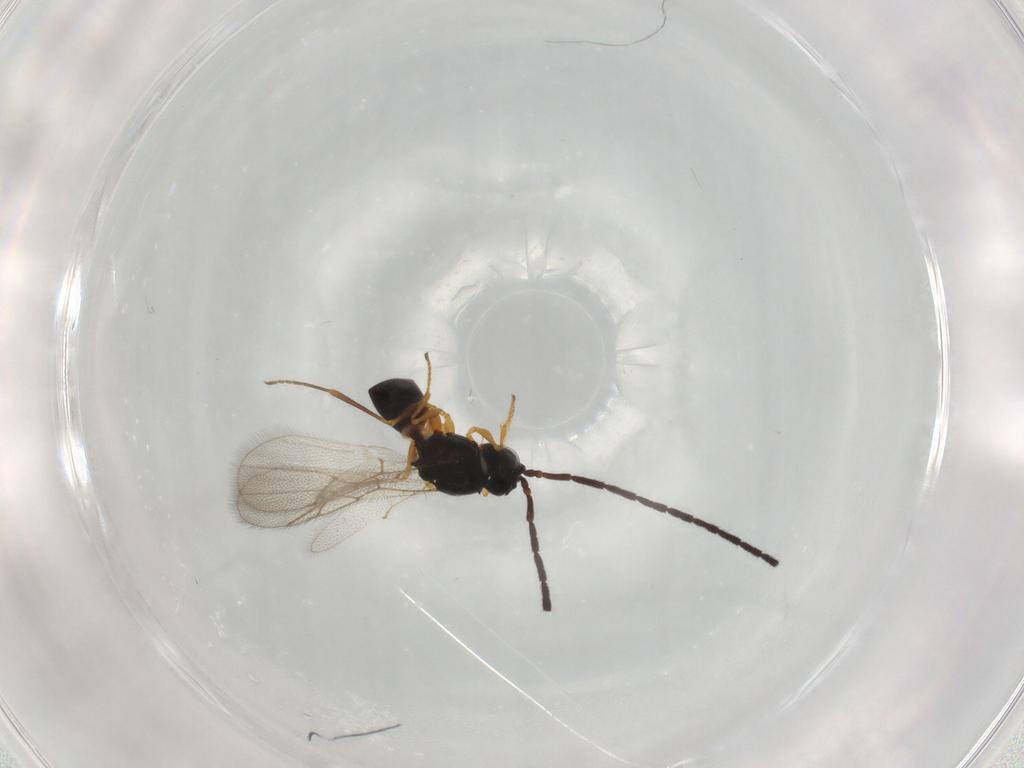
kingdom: Animalia
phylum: Arthropoda
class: Insecta
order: Hymenoptera
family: Figitidae
